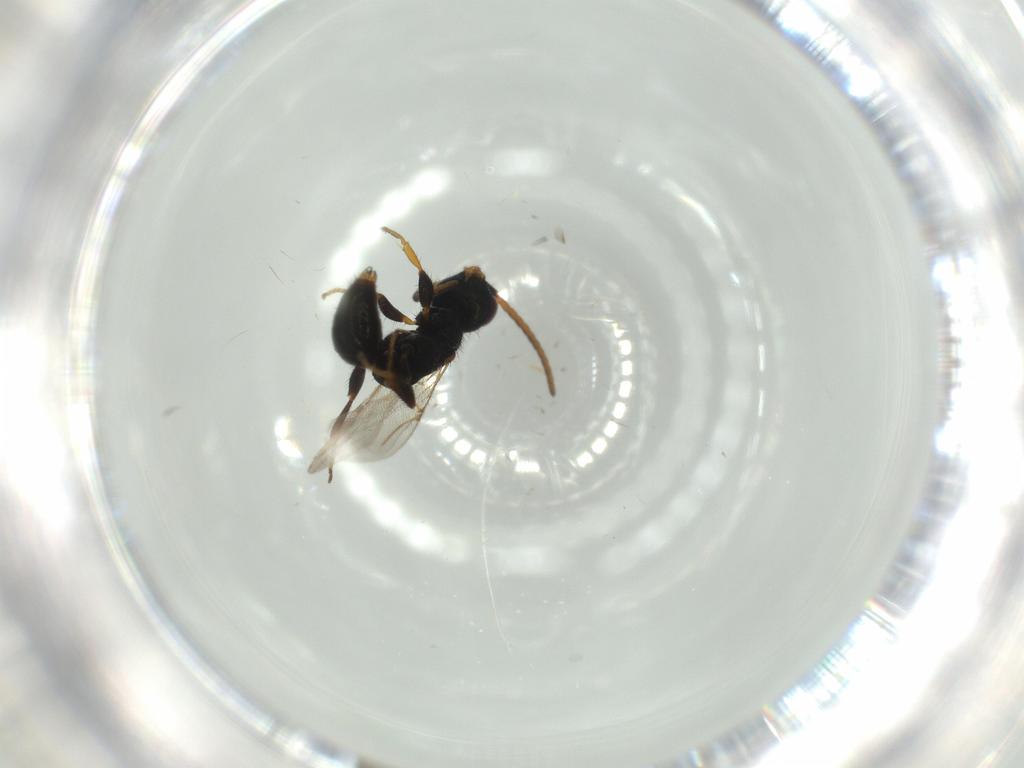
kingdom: Animalia
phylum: Arthropoda
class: Insecta
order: Hymenoptera
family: Bethylidae
